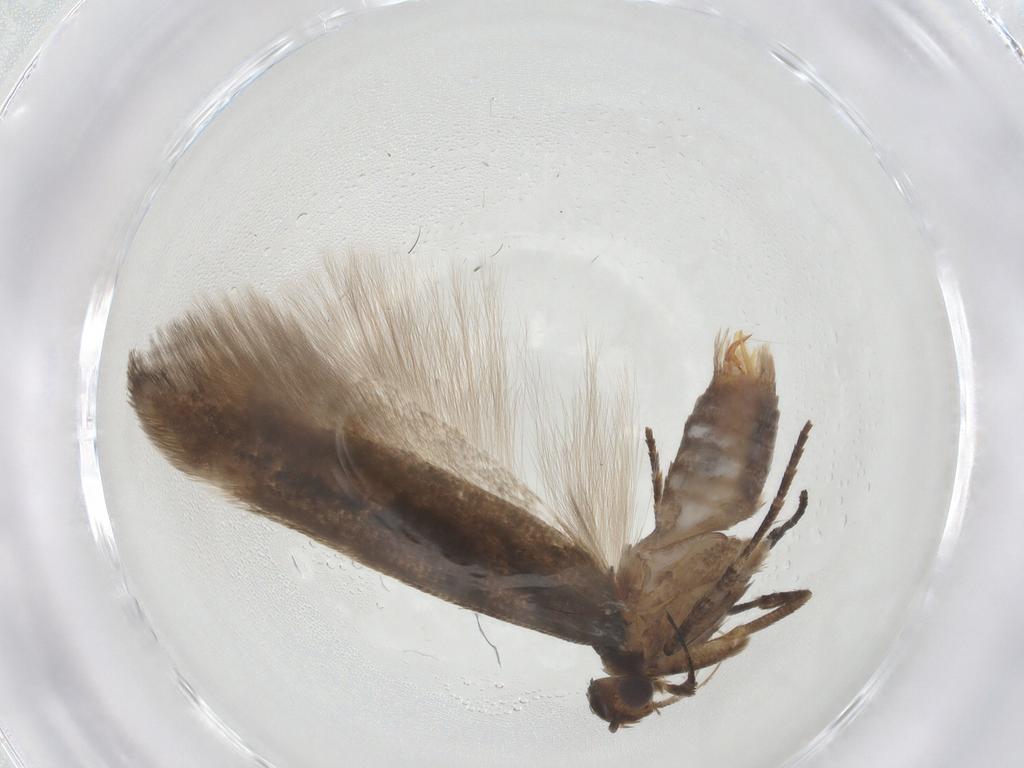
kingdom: Animalia
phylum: Arthropoda
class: Insecta
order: Lepidoptera
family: Gelechiidae
